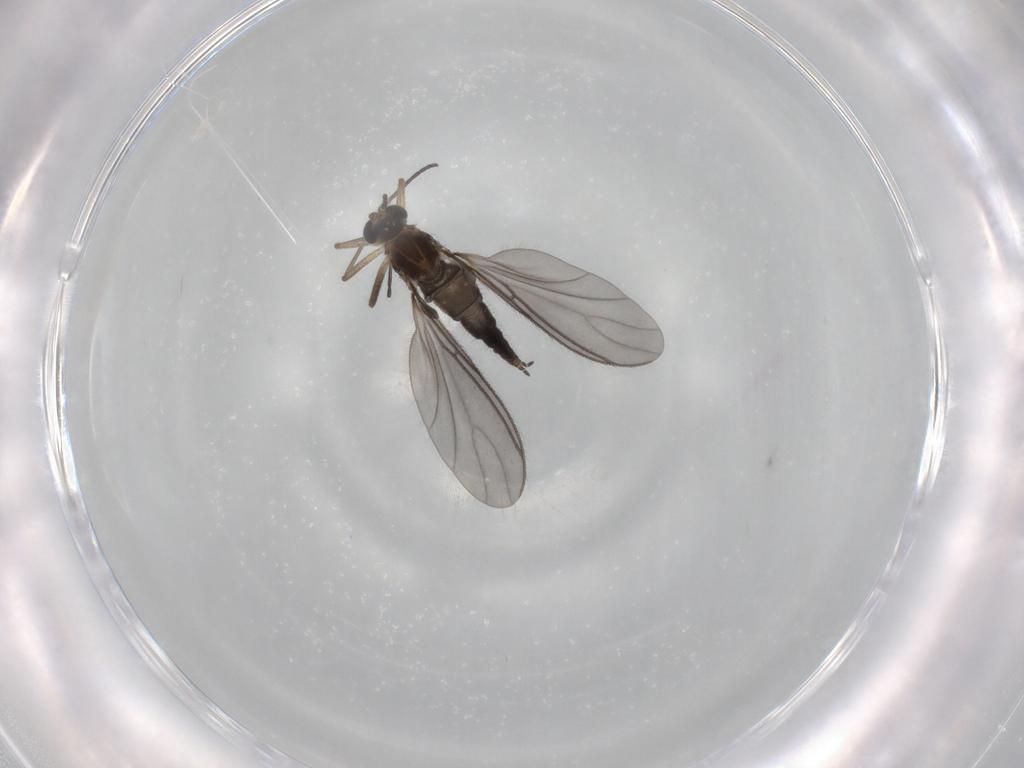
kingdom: Animalia
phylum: Arthropoda
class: Insecta
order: Diptera
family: Sciaridae
